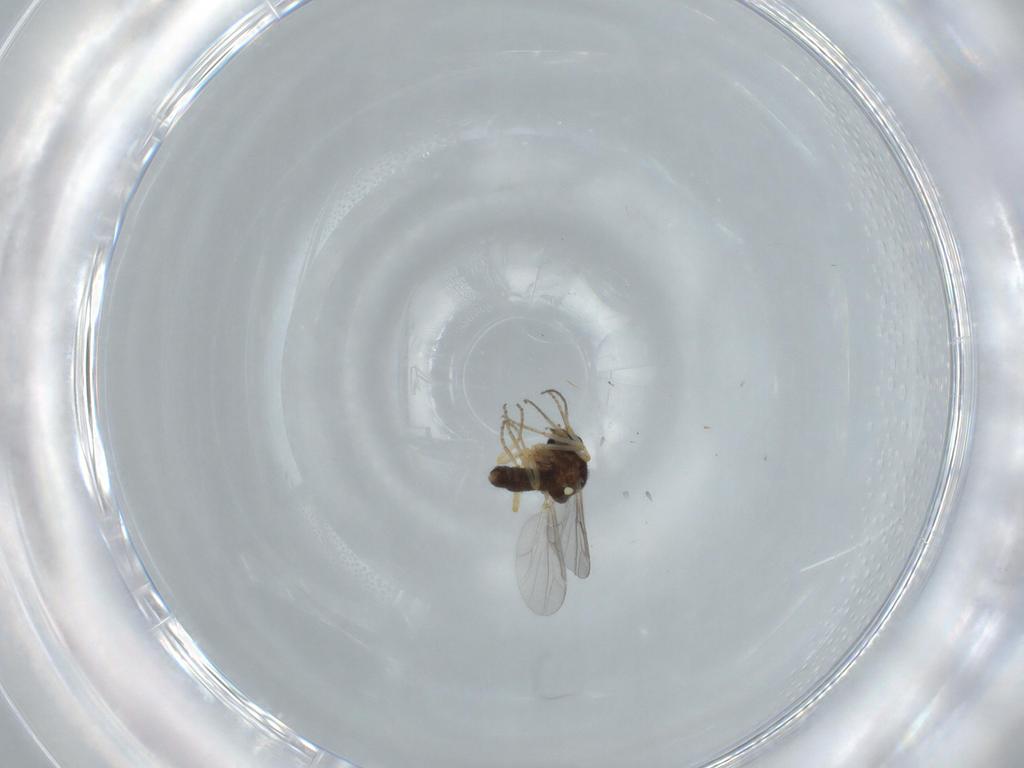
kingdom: Animalia
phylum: Arthropoda
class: Insecta
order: Diptera
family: Ceratopogonidae
